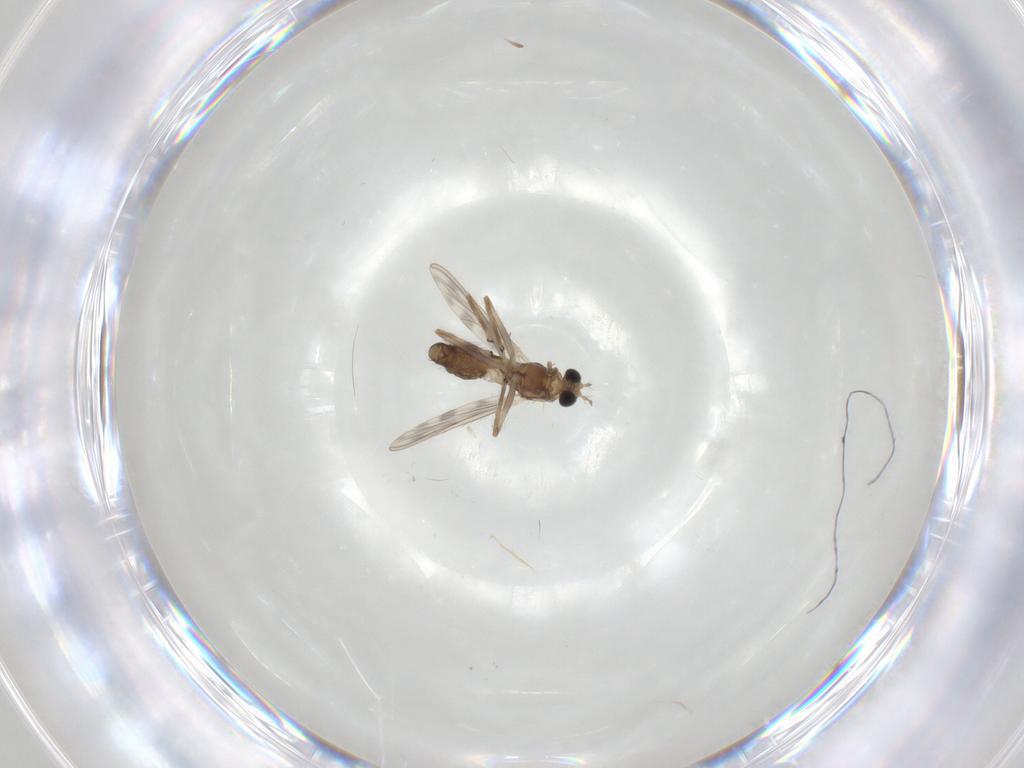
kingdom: Animalia
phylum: Arthropoda
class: Insecta
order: Diptera
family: Chironomidae
